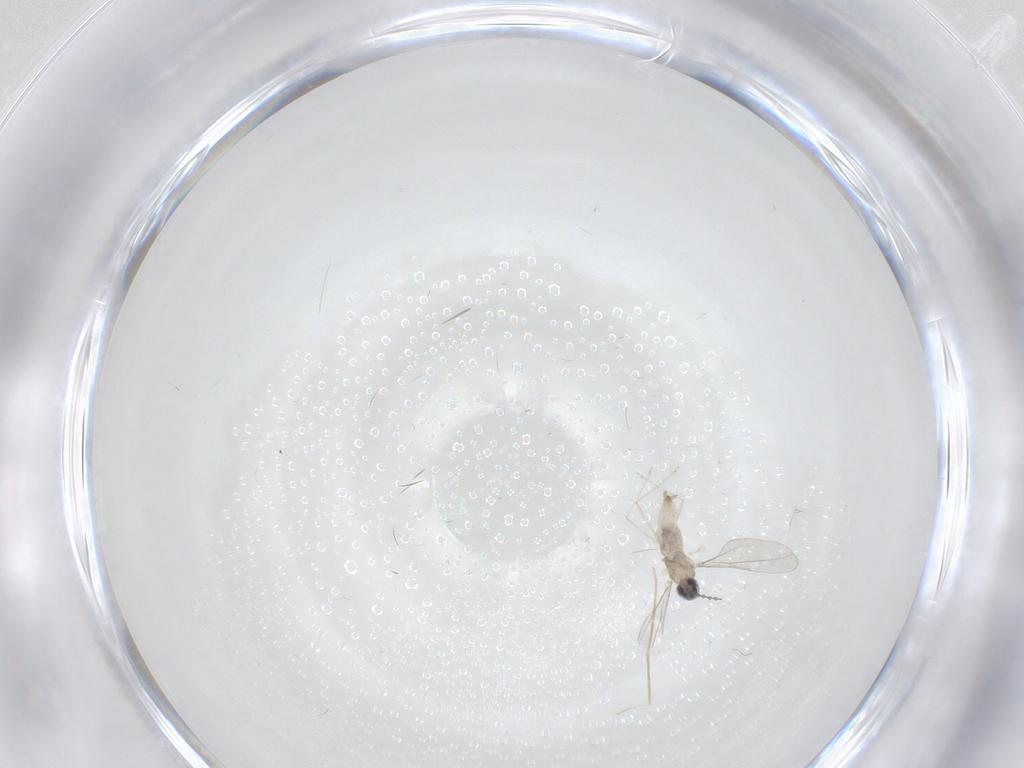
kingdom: Animalia
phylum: Arthropoda
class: Insecta
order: Diptera
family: Cecidomyiidae
